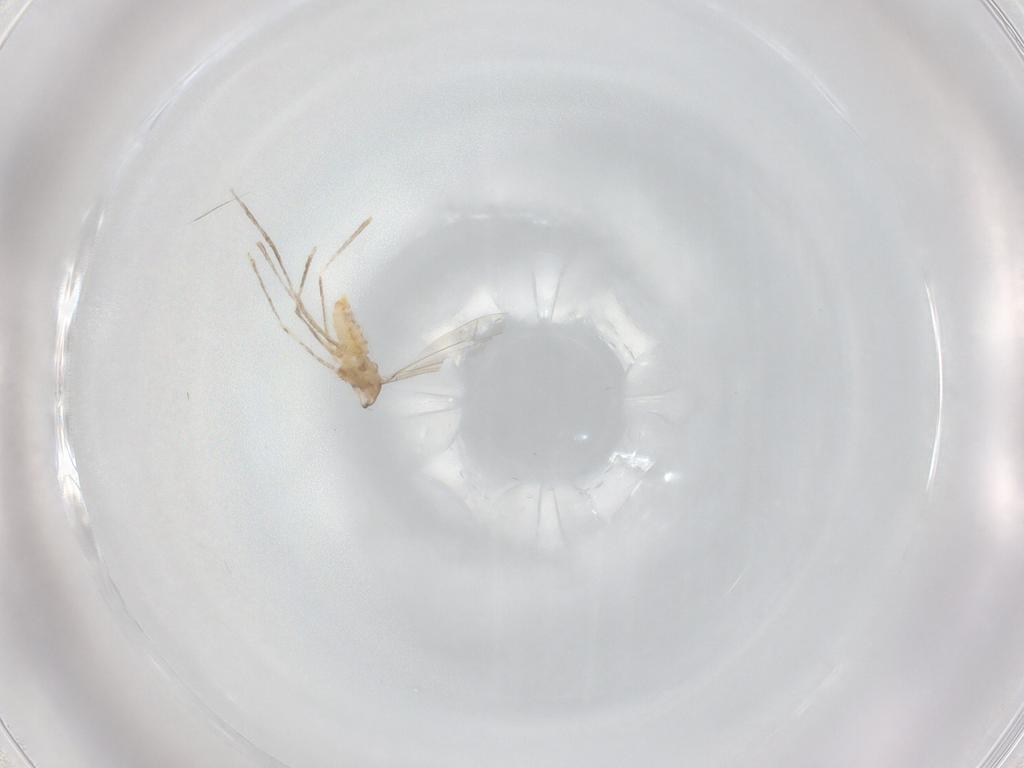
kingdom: Animalia
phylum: Arthropoda
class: Insecta
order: Diptera
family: Cecidomyiidae
